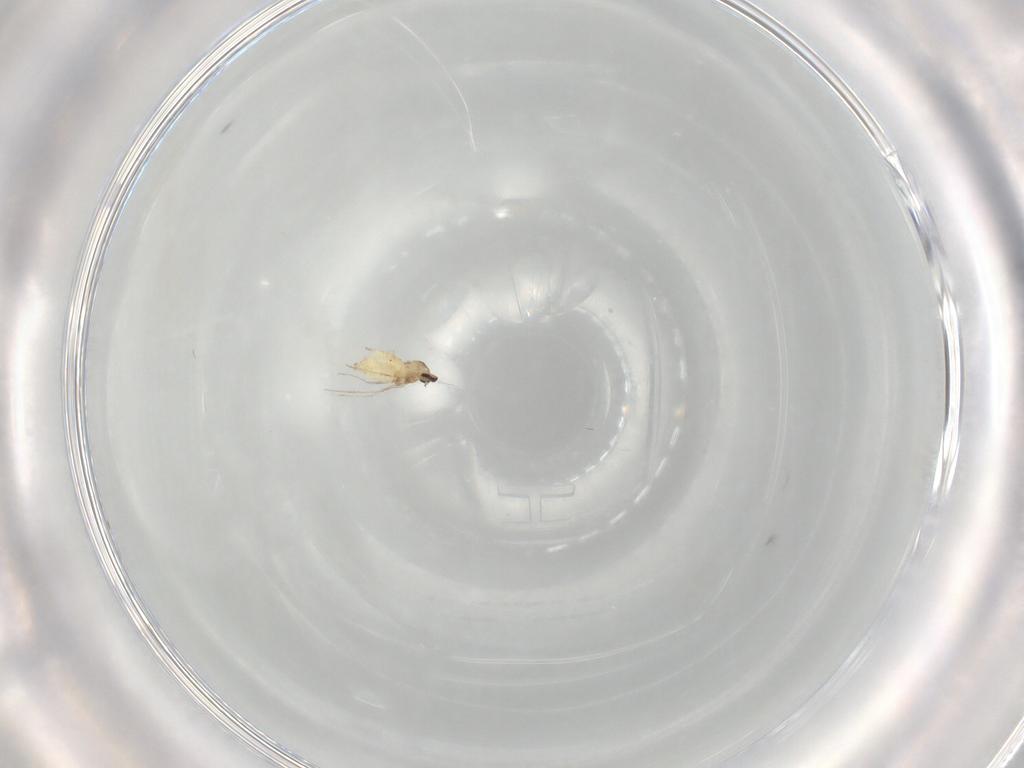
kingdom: Animalia
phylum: Arthropoda
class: Insecta
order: Diptera
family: Cecidomyiidae
